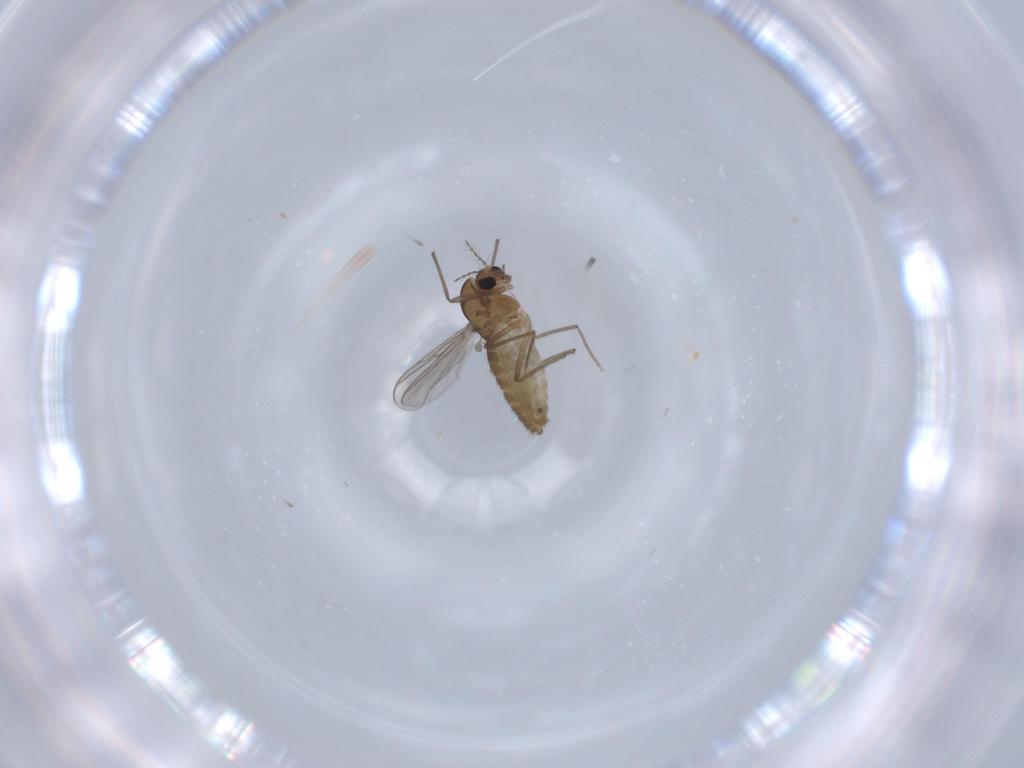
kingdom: Animalia
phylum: Arthropoda
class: Insecta
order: Diptera
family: Chironomidae
